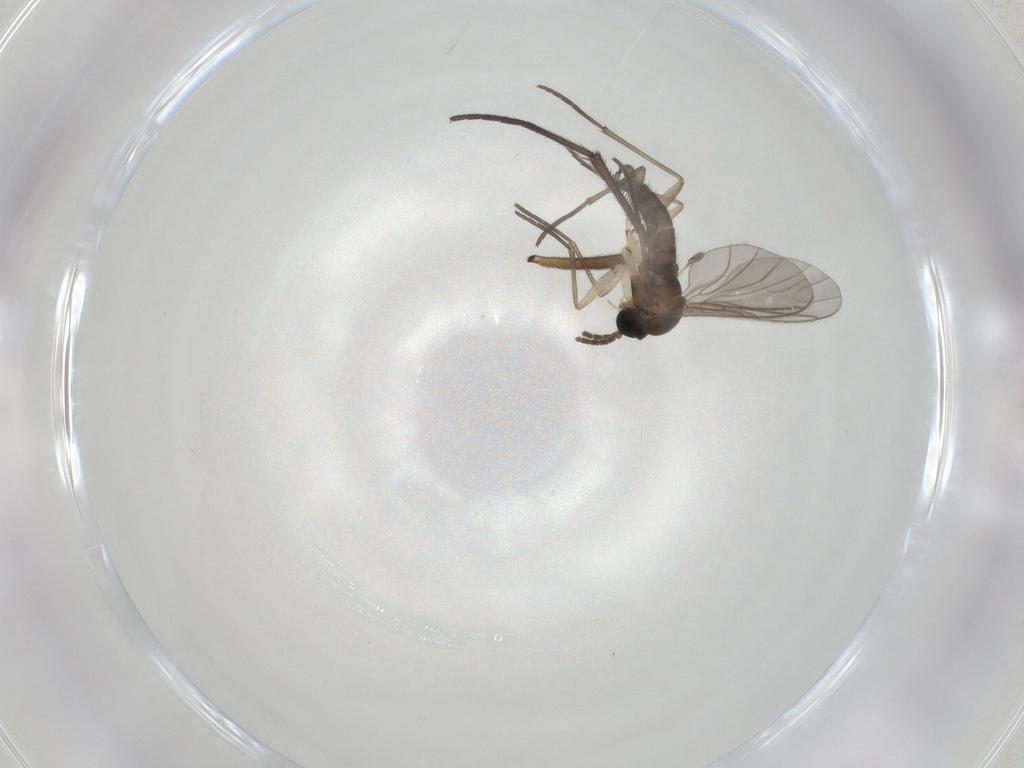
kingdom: Animalia
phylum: Arthropoda
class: Insecta
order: Diptera
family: Sciaridae
